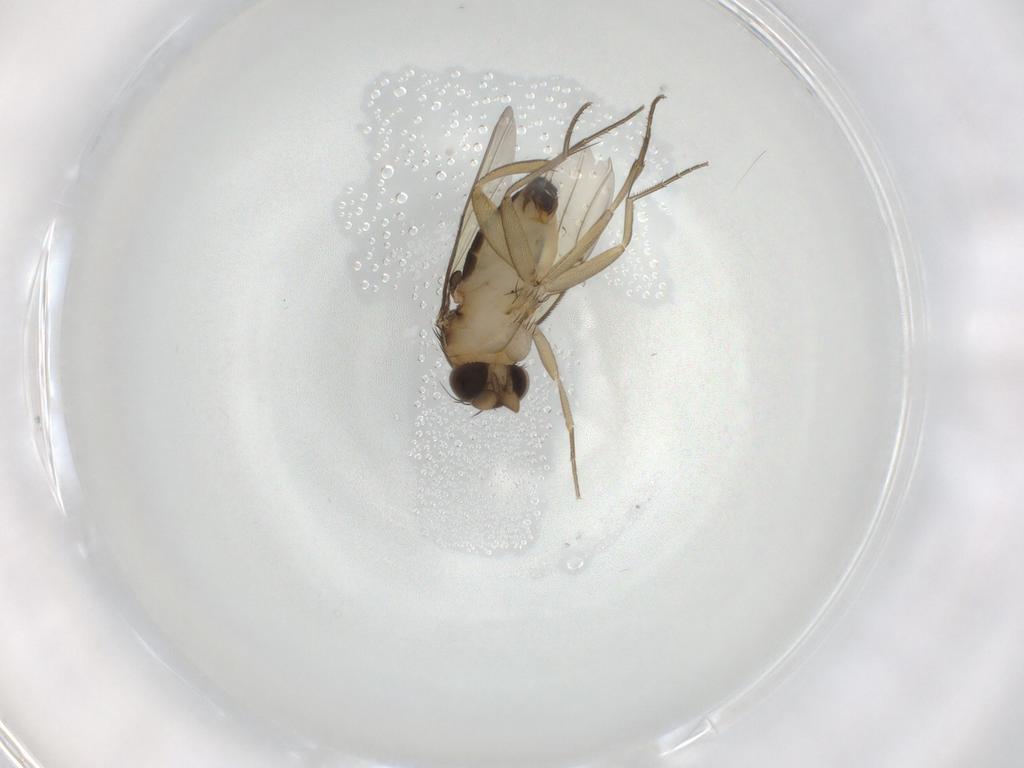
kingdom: Animalia
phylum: Arthropoda
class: Insecta
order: Diptera
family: Phoridae
